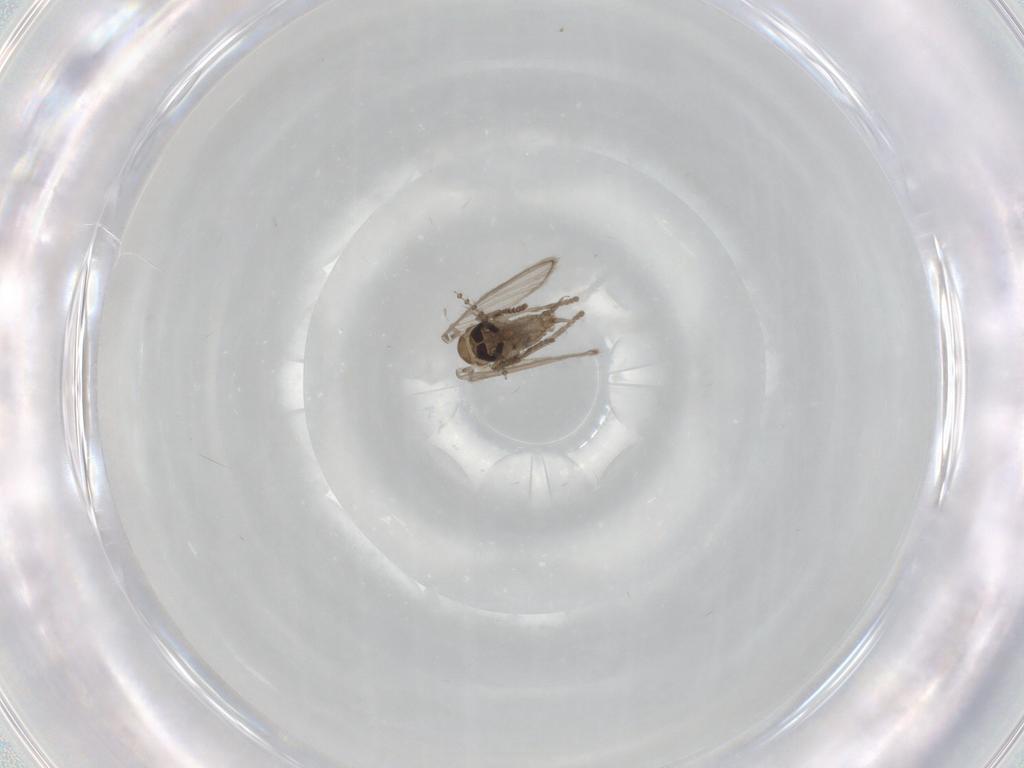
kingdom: Animalia
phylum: Arthropoda
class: Insecta
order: Diptera
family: Psychodidae
